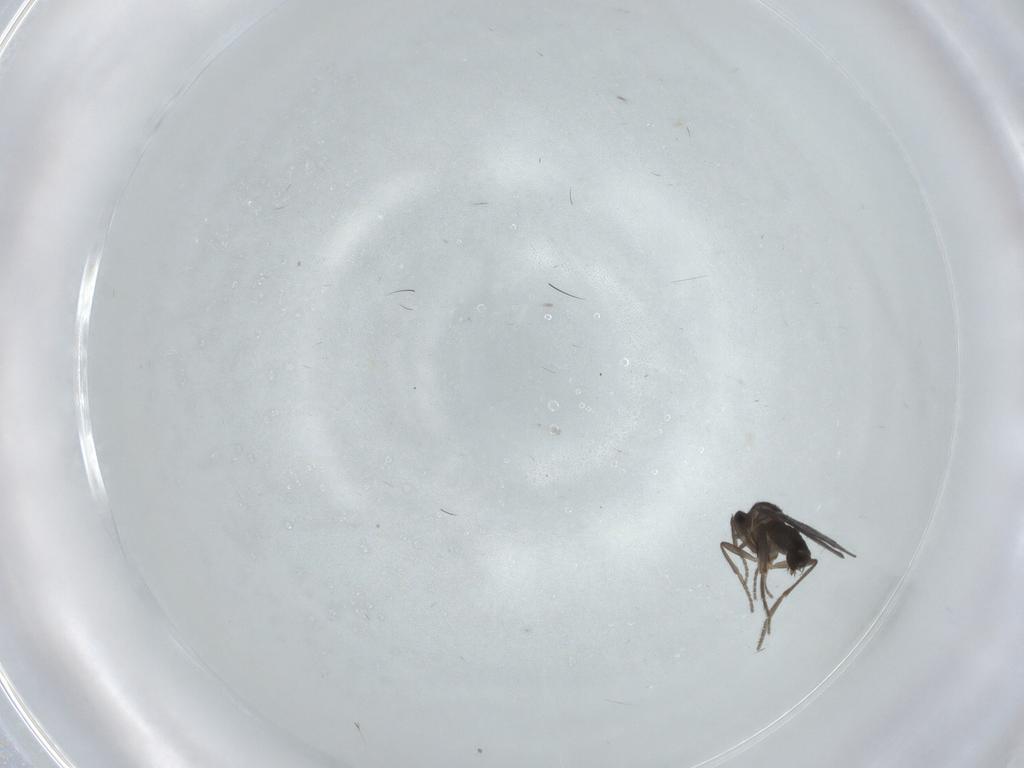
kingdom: Animalia
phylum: Arthropoda
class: Insecta
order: Diptera
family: Phoridae
